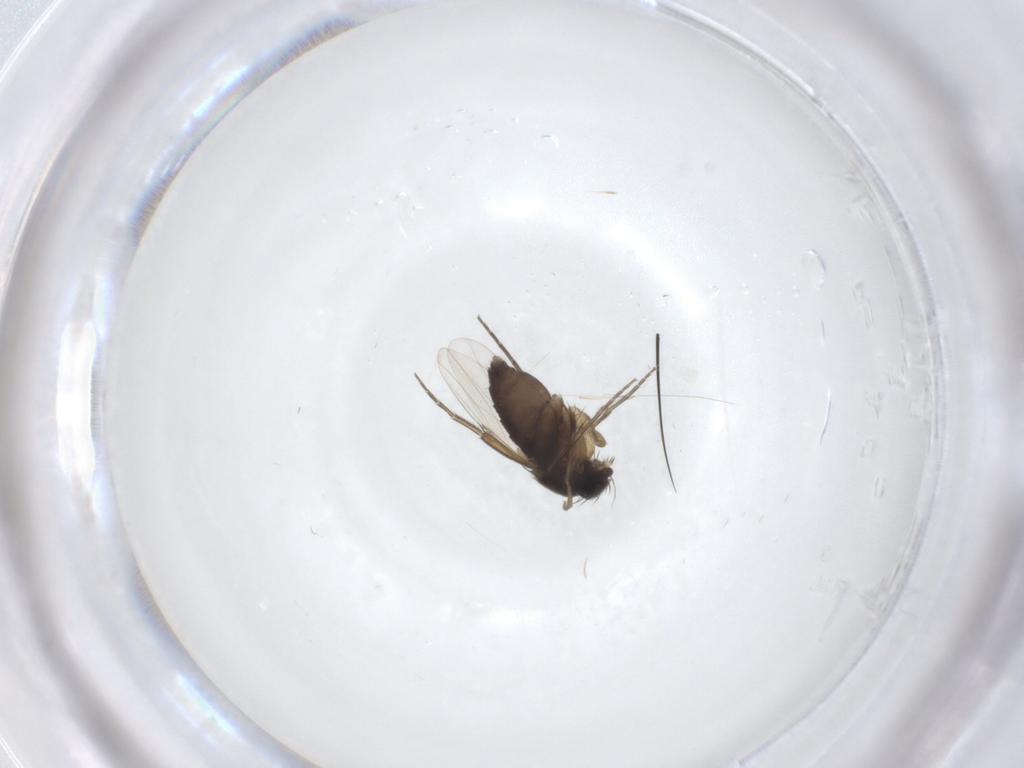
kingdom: Animalia
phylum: Arthropoda
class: Insecta
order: Diptera
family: Phoridae
